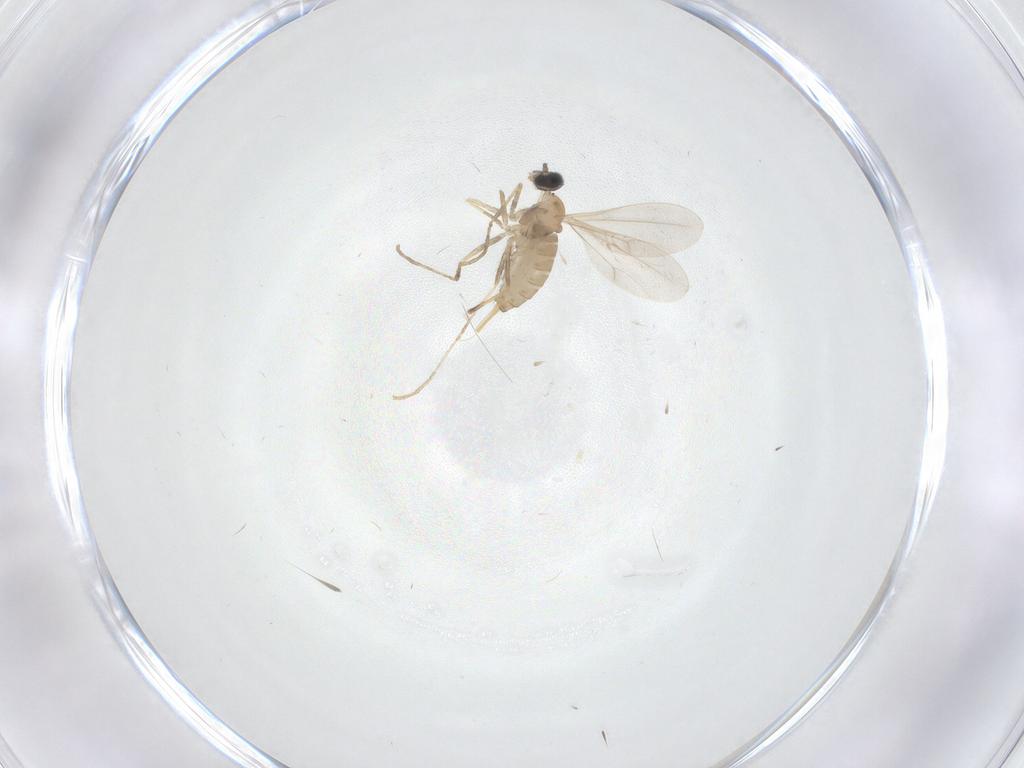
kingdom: Animalia
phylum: Arthropoda
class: Insecta
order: Diptera
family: Cecidomyiidae
